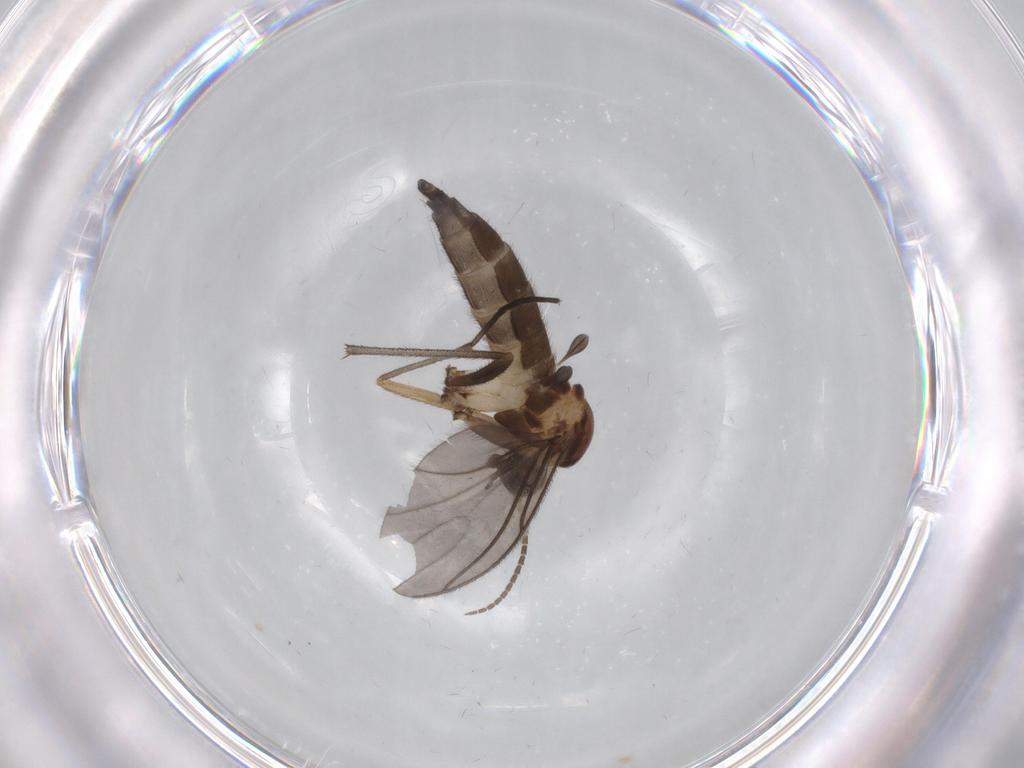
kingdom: Animalia
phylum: Arthropoda
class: Insecta
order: Diptera
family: Sciaridae
